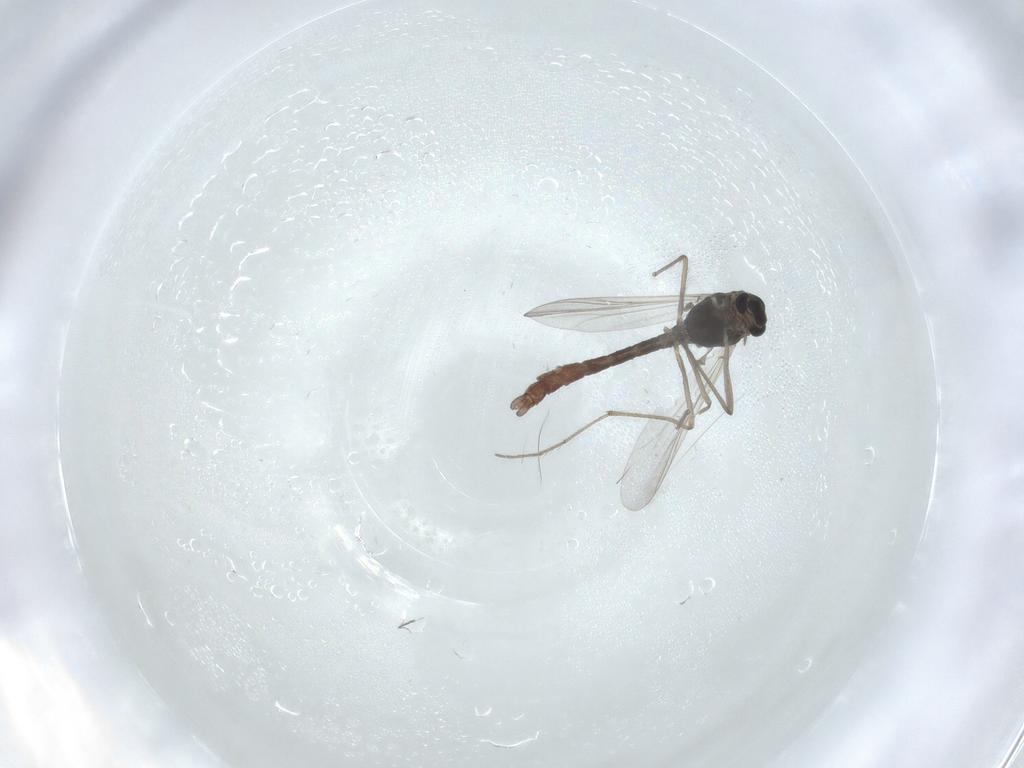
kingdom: Animalia
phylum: Arthropoda
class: Insecta
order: Diptera
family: Chironomidae
